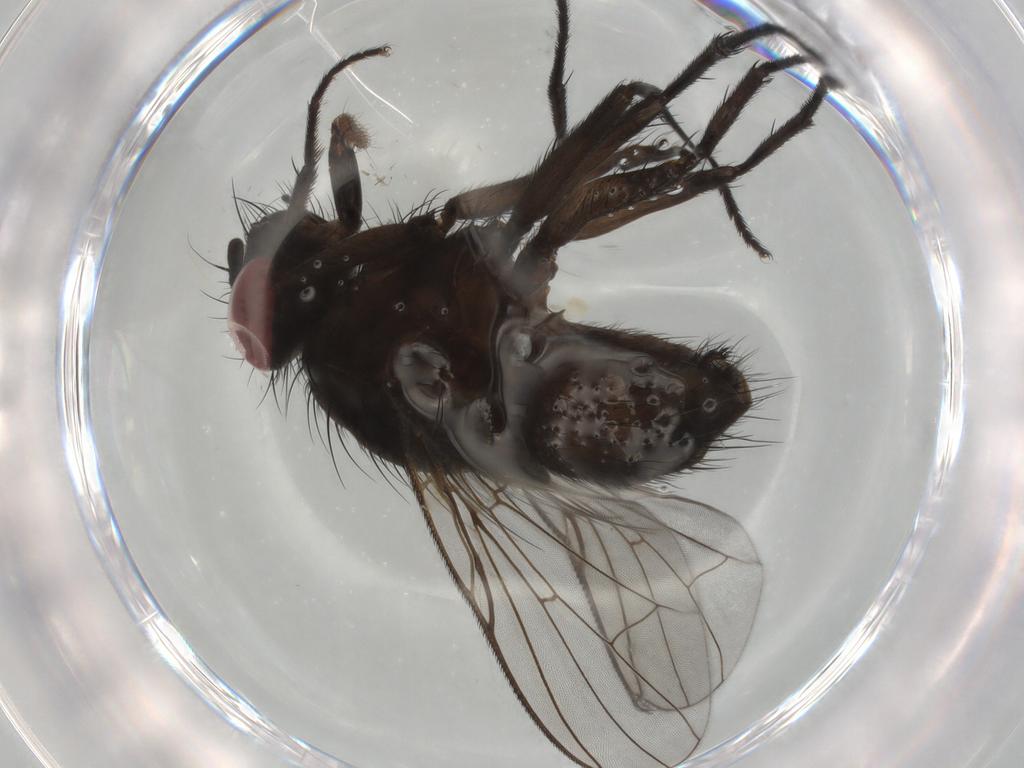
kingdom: Animalia
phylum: Arthropoda
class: Insecta
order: Diptera
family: Muscidae
